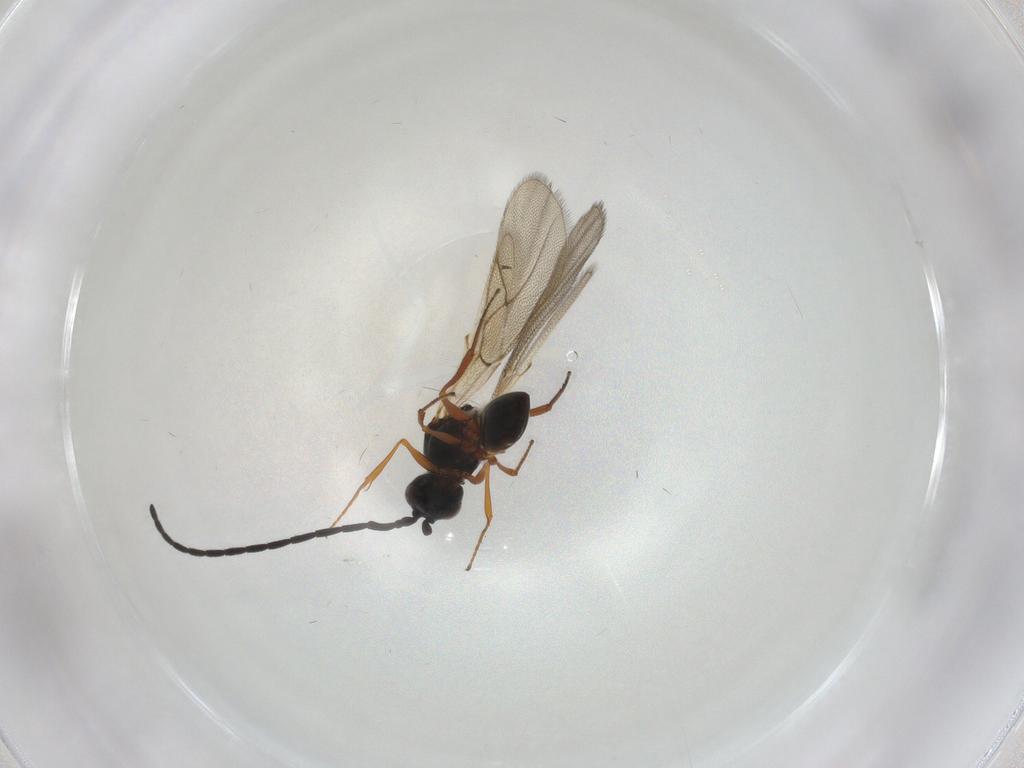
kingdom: Animalia
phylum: Arthropoda
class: Insecta
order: Hymenoptera
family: Figitidae
